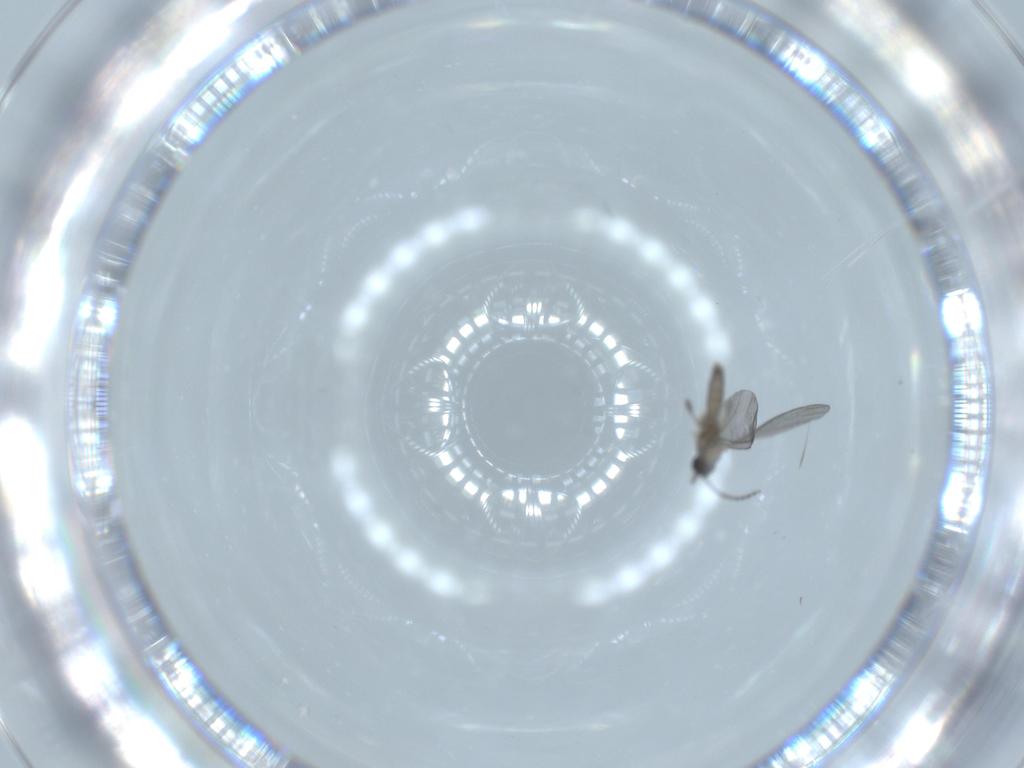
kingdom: Animalia
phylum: Arthropoda
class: Insecta
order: Diptera
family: Sciaridae
